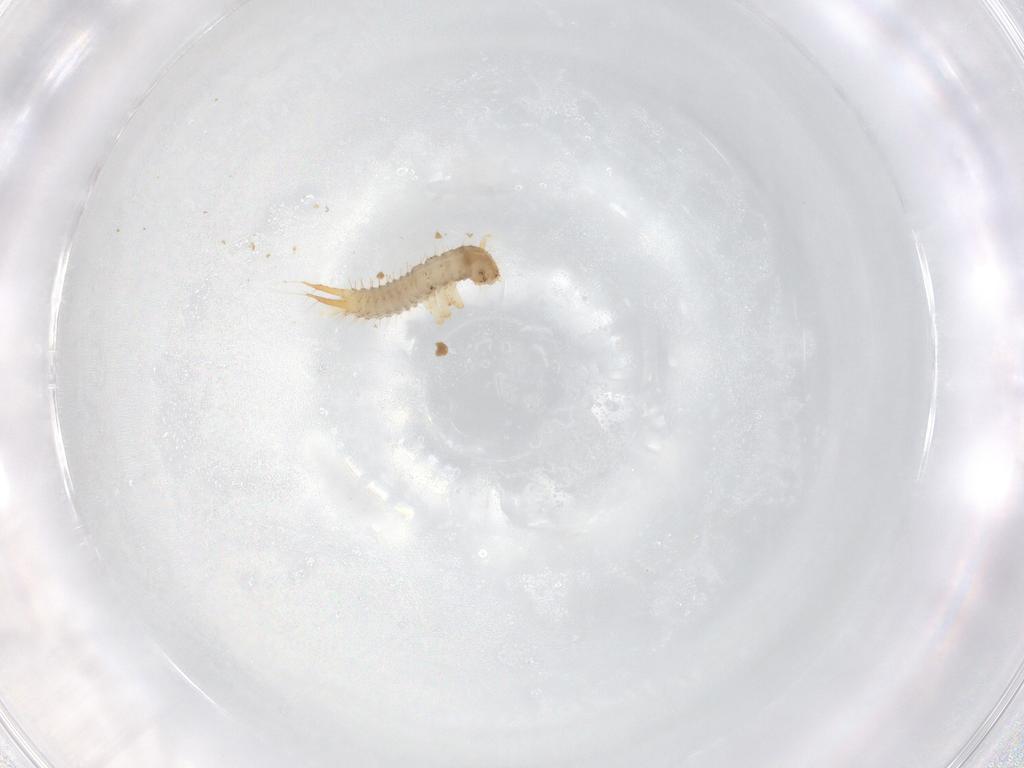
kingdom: Animalia
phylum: Arthropoda
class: Insecta
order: Coleoptera
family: Staphylinidae
